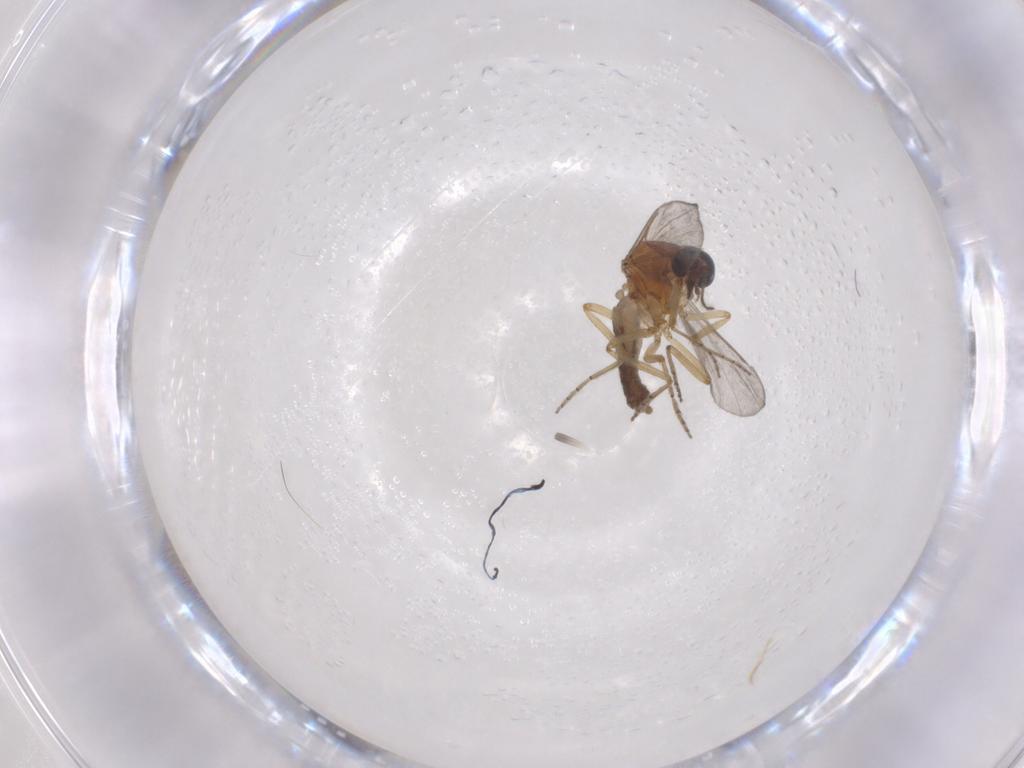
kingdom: Animalia
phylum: Arthropoda
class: Insecta
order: Diptera
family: Ceratopogonidae
